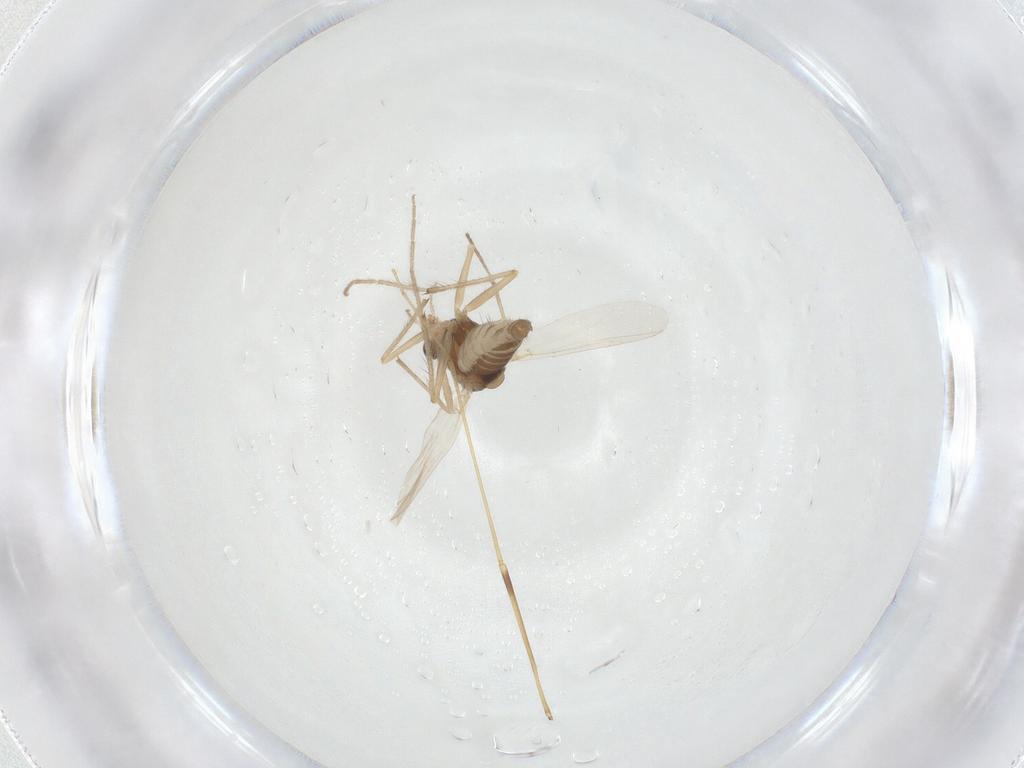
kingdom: Animalia
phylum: Arthropoda
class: Insecta
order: Diptera
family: Chironomidae
